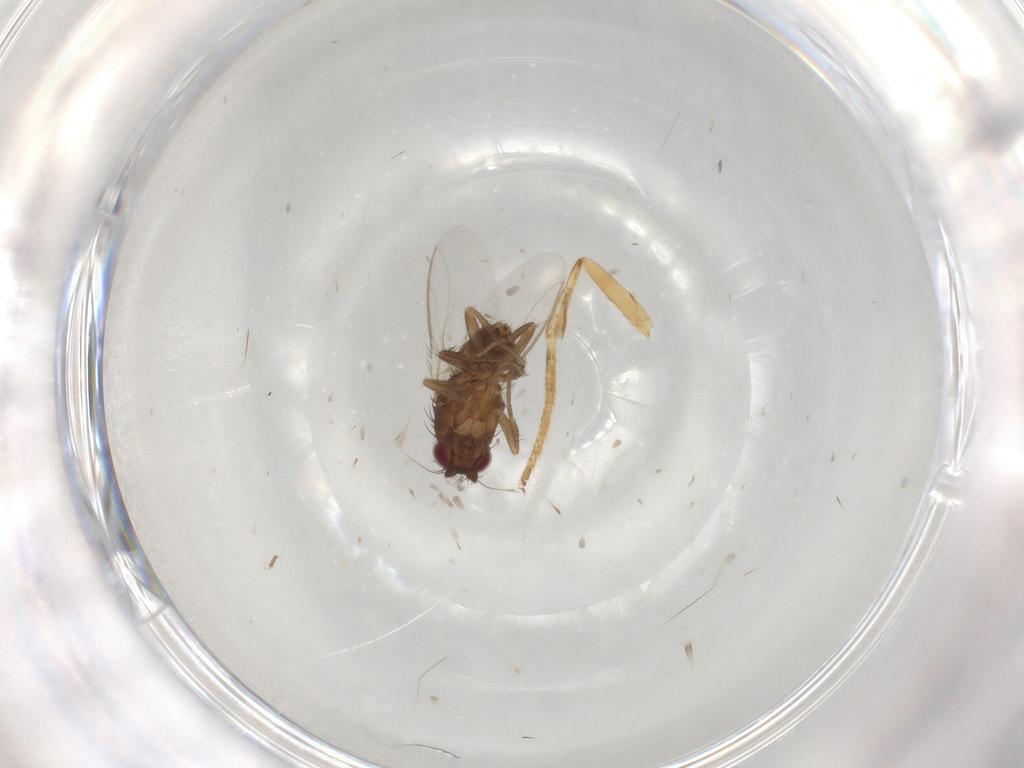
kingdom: Animalia
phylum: Arthropoda
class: Insecta
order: Diptera
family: Sphaeroceridae
